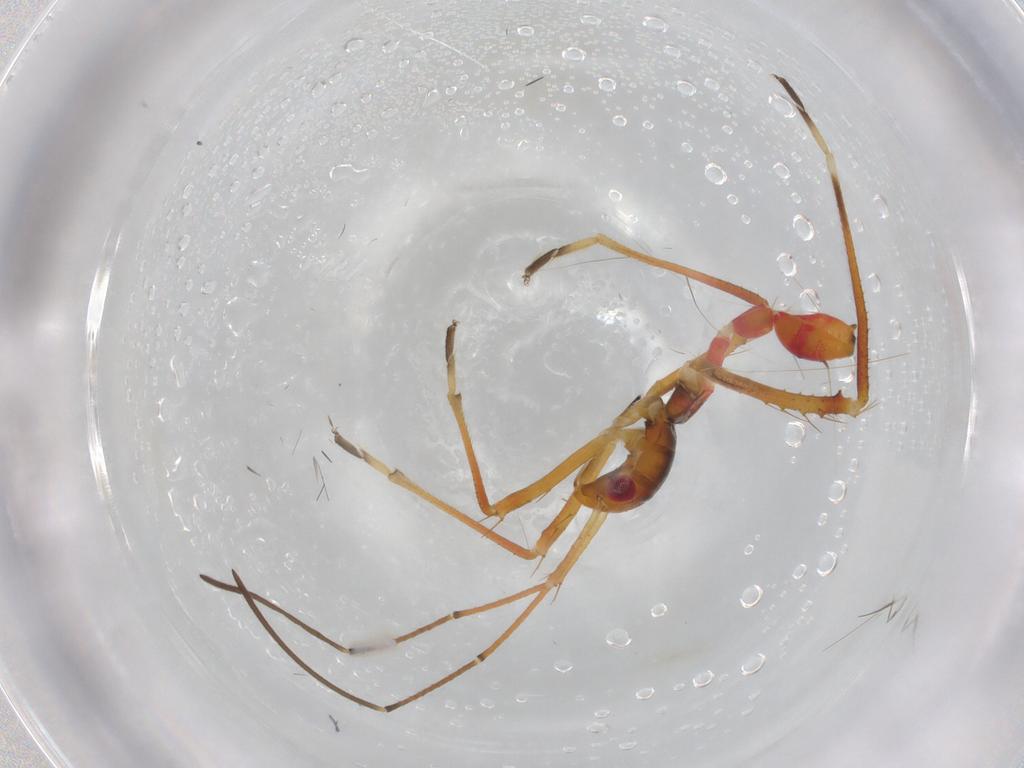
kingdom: Animalia
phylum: Arthropoda
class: Insecta
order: Hemiptera
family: Colobathristidae
